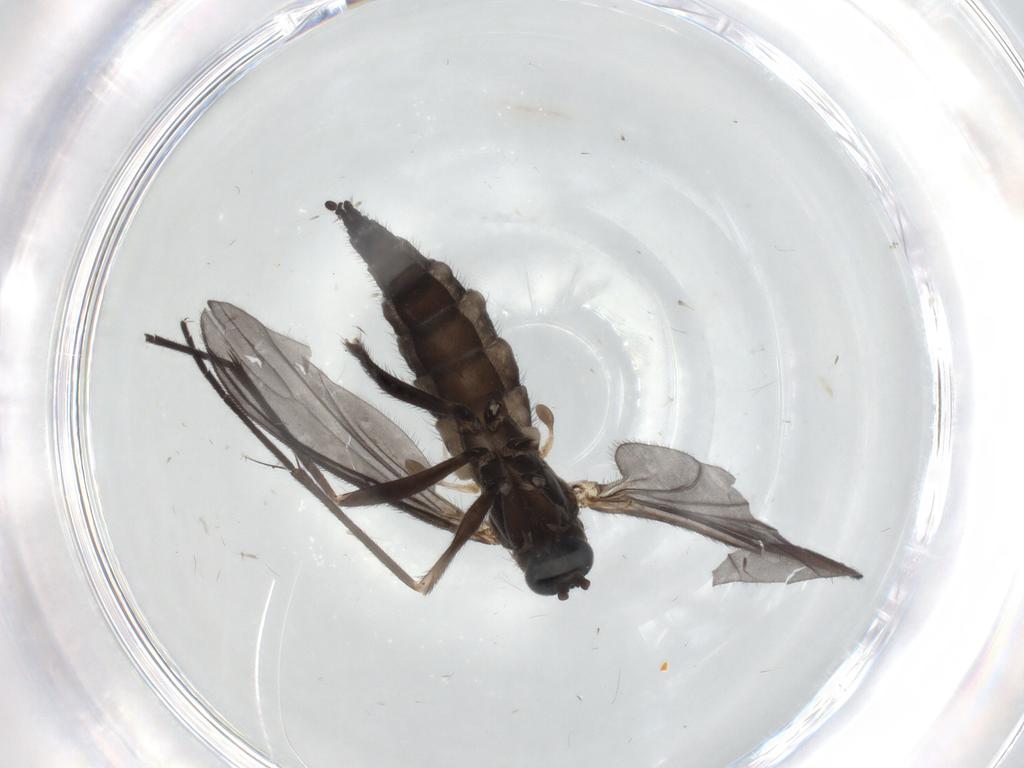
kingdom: Animalia
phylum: Arthropoda
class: Insecta
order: Diptera
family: Sciaridae
